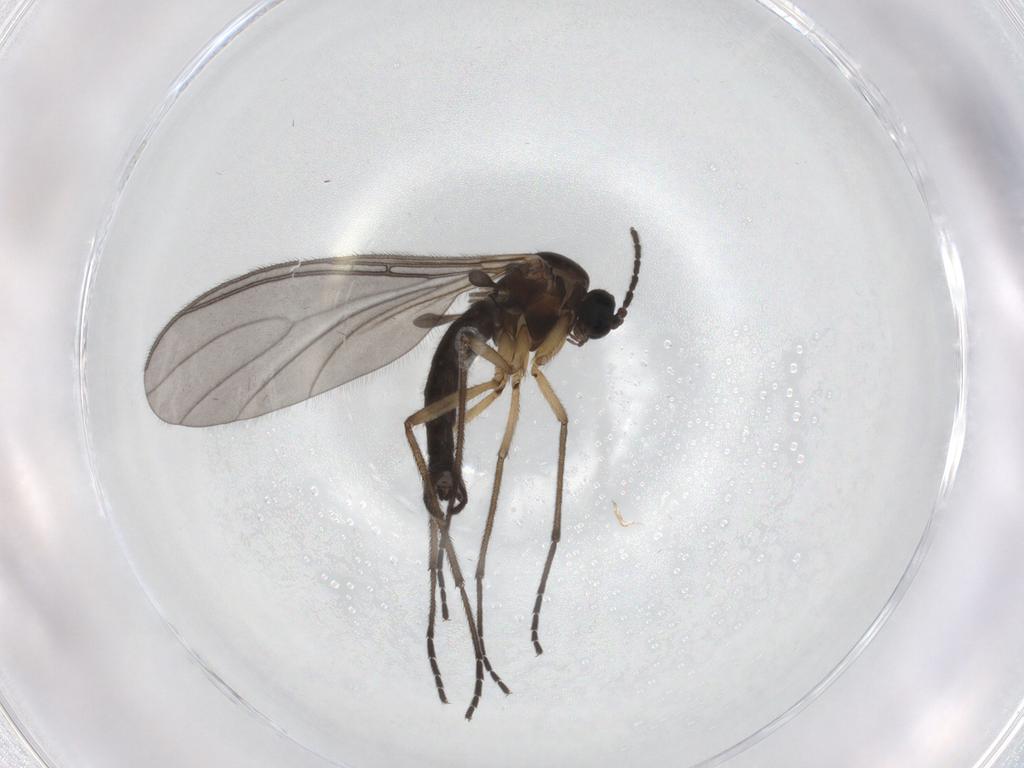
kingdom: Animalia
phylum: Arthropoda
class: Insecta
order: Diptera
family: Sciaridae
